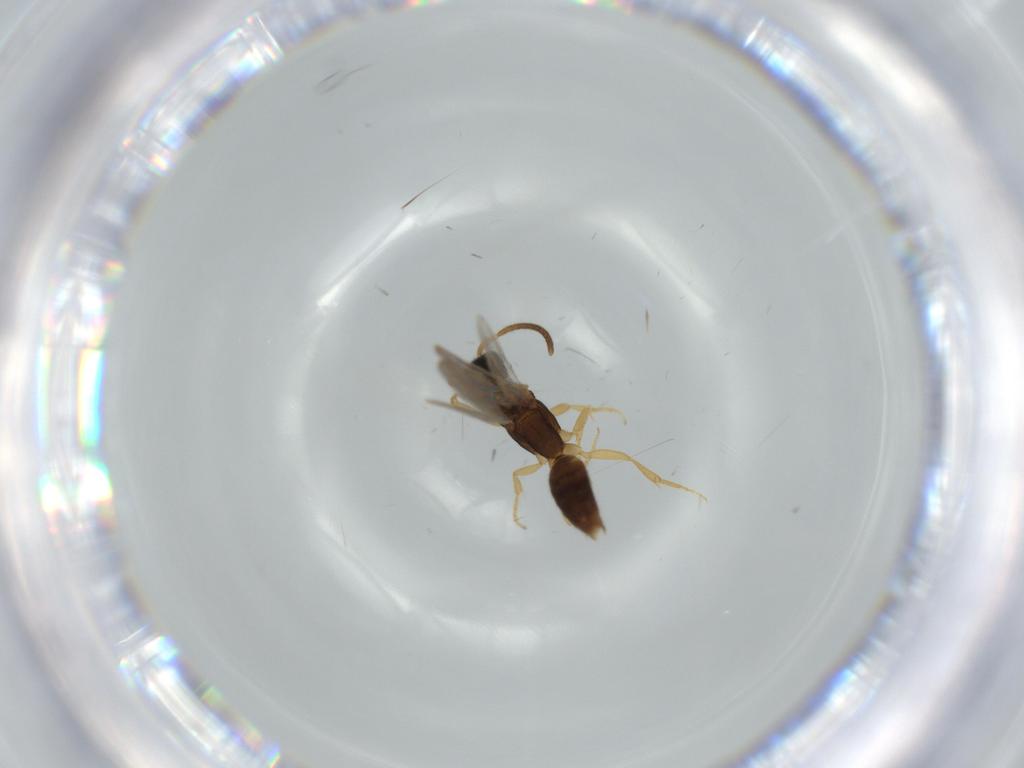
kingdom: Animalia
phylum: Arthropoda
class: Insecta
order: Hymenoptera
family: Bethylidae
